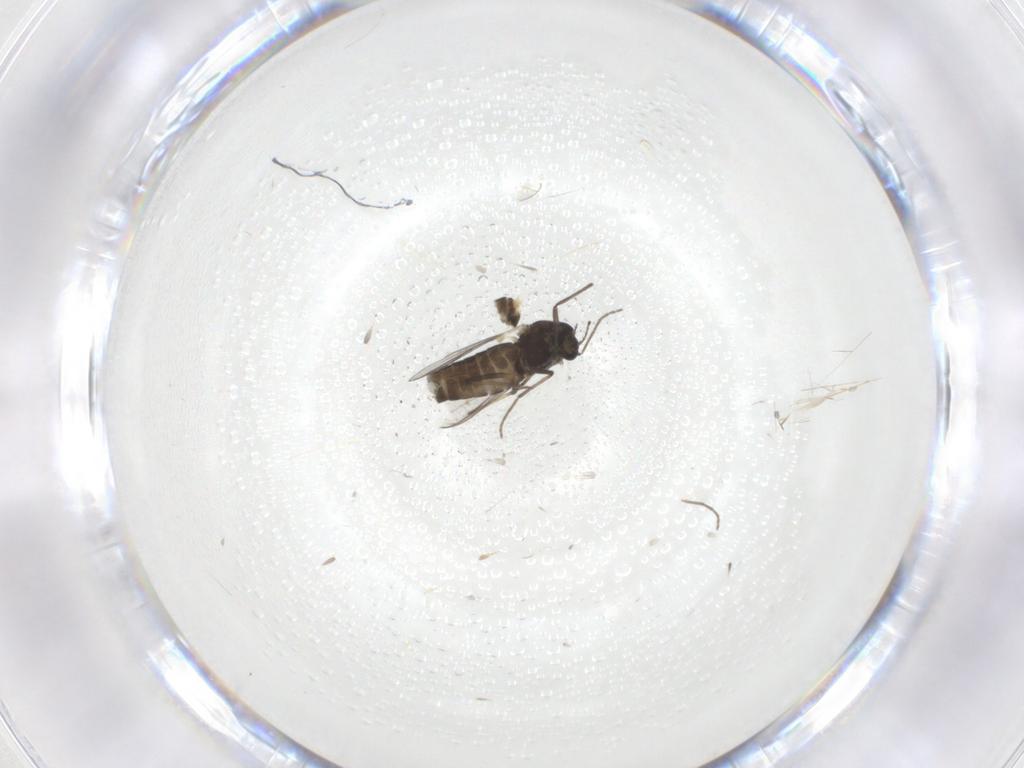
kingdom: Animalia
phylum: Arthropoda
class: Insecta
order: Diptera
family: Chironomidae
